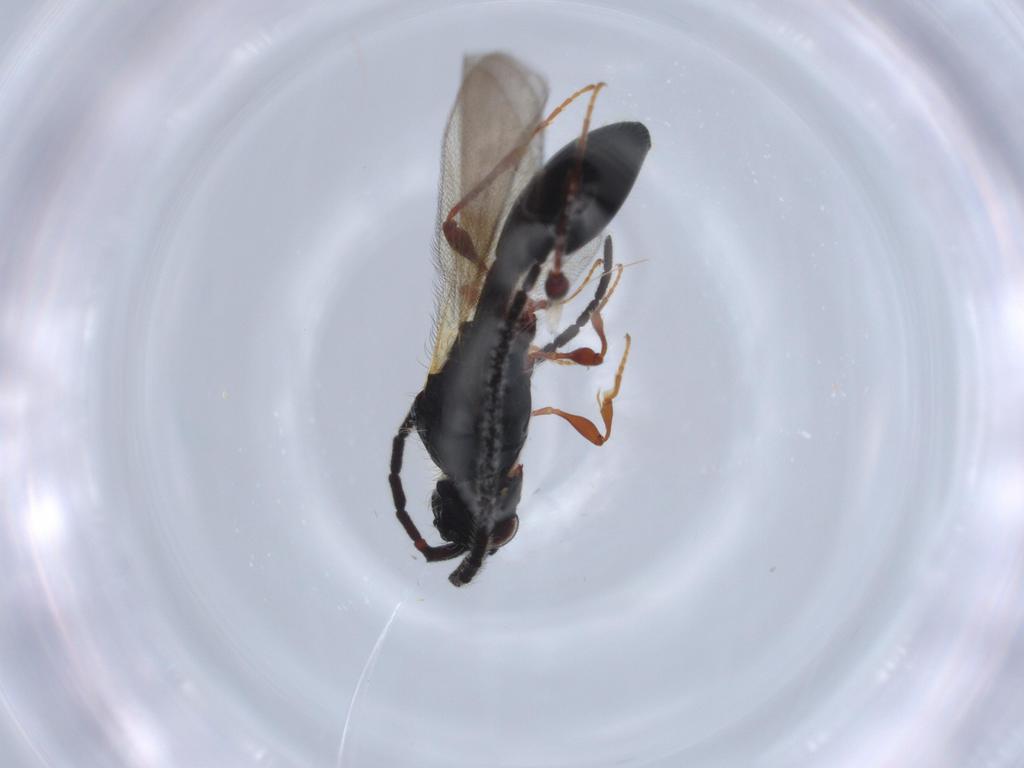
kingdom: Animalia
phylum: Arthropoda
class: Insecta
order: Hymenoptera
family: Diapriidae
